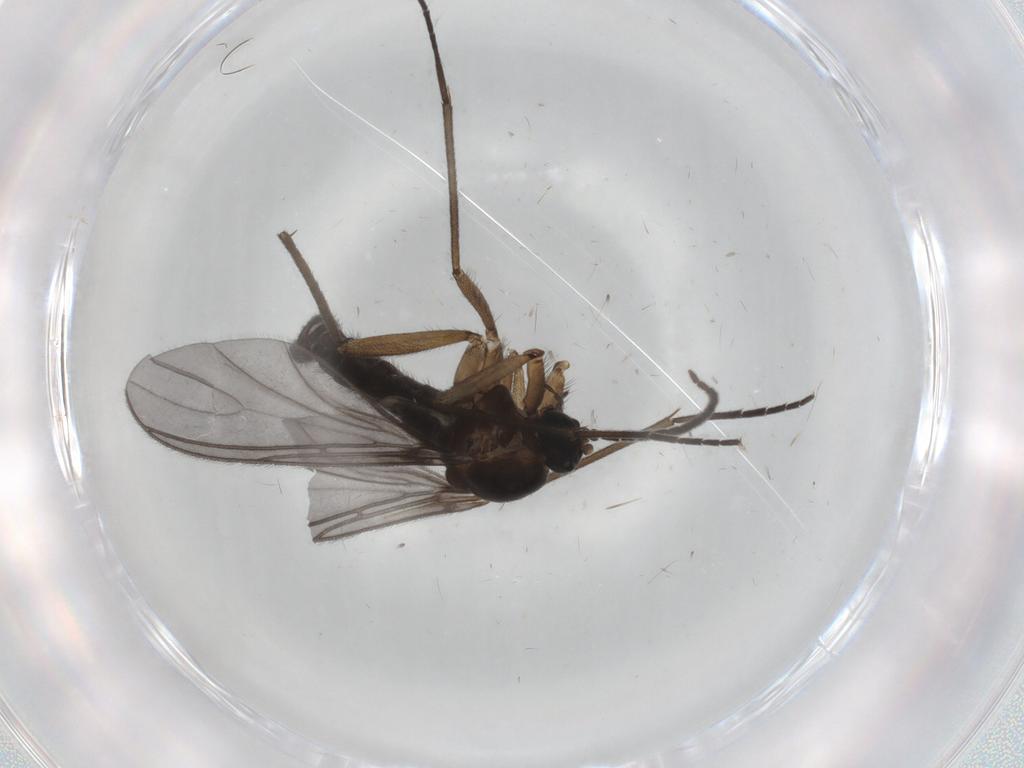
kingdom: Animalia
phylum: Arthropoda
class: Insecta
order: Diptera
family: Sciaridae
